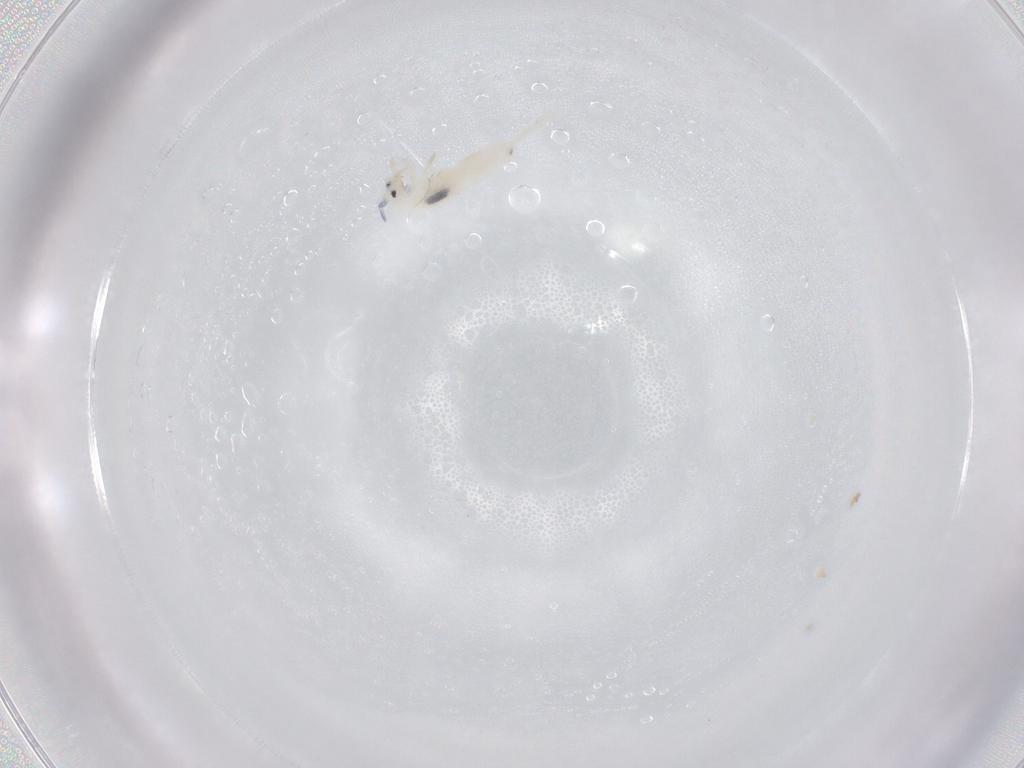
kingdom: Animalia
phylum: Arthropoda
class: Collembola
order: Entomobryomorpha
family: Entomobryidae
